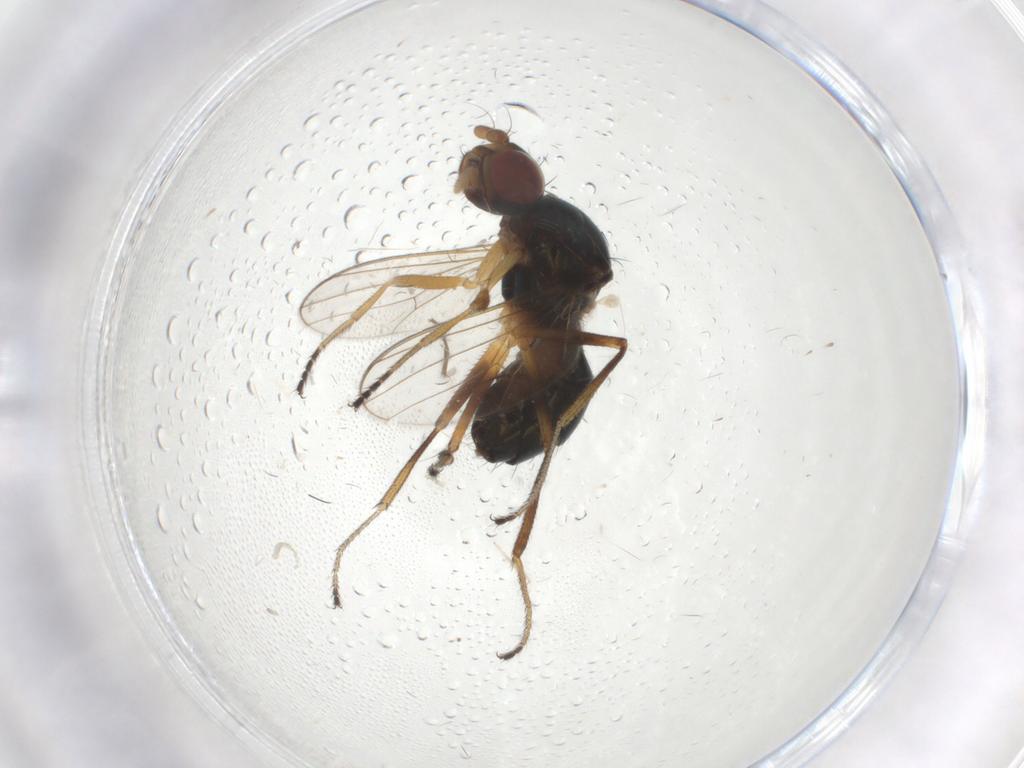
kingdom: Animalia
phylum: Arthropoda
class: Insecta
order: Diptera
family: Sepsidae
